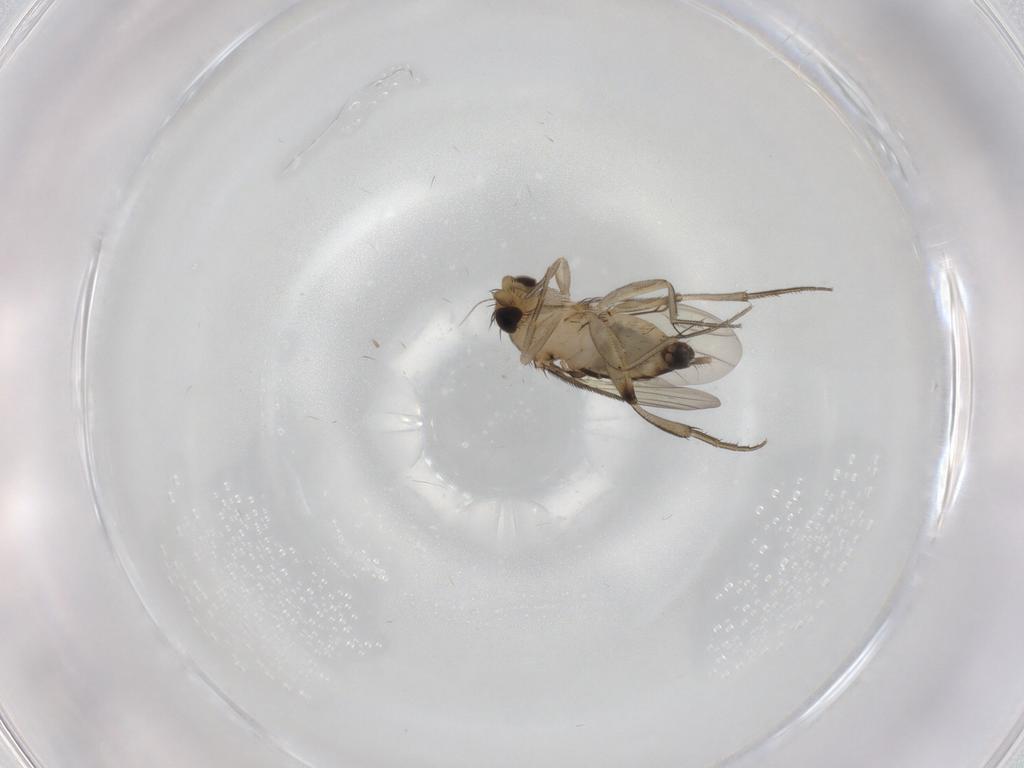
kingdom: Animalia
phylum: Arthropoda
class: Insecta
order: Diptera
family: Phoridae
